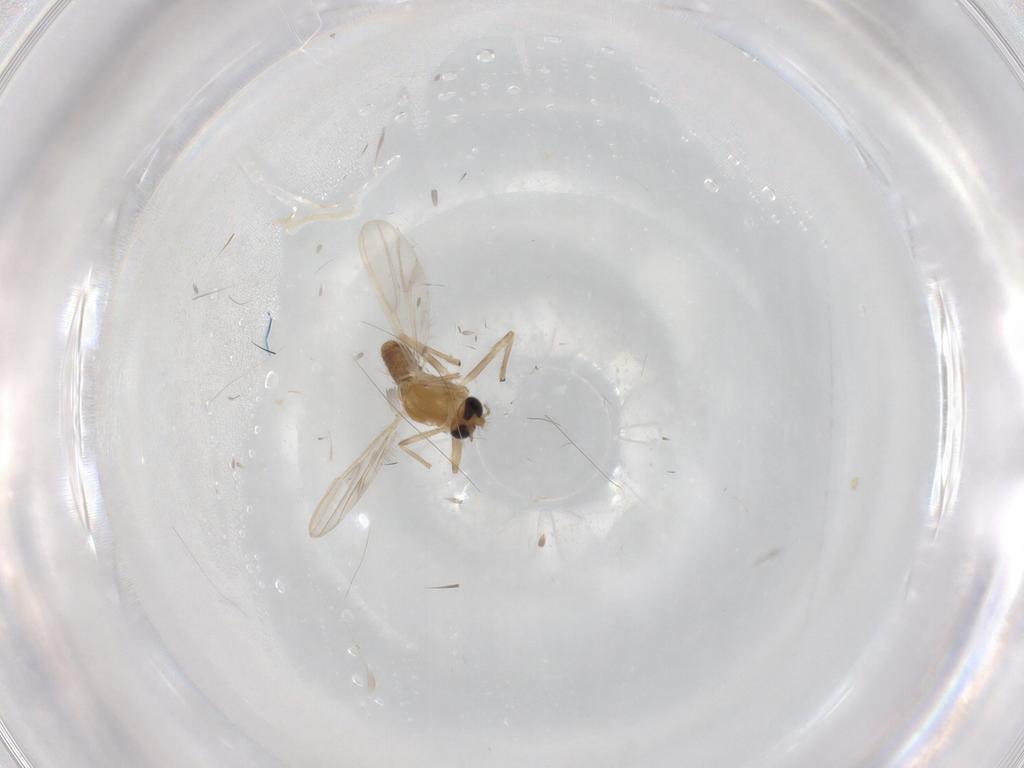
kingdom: Animalia
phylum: Arthropoda
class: Insecta
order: Diptera
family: Chironomidae
